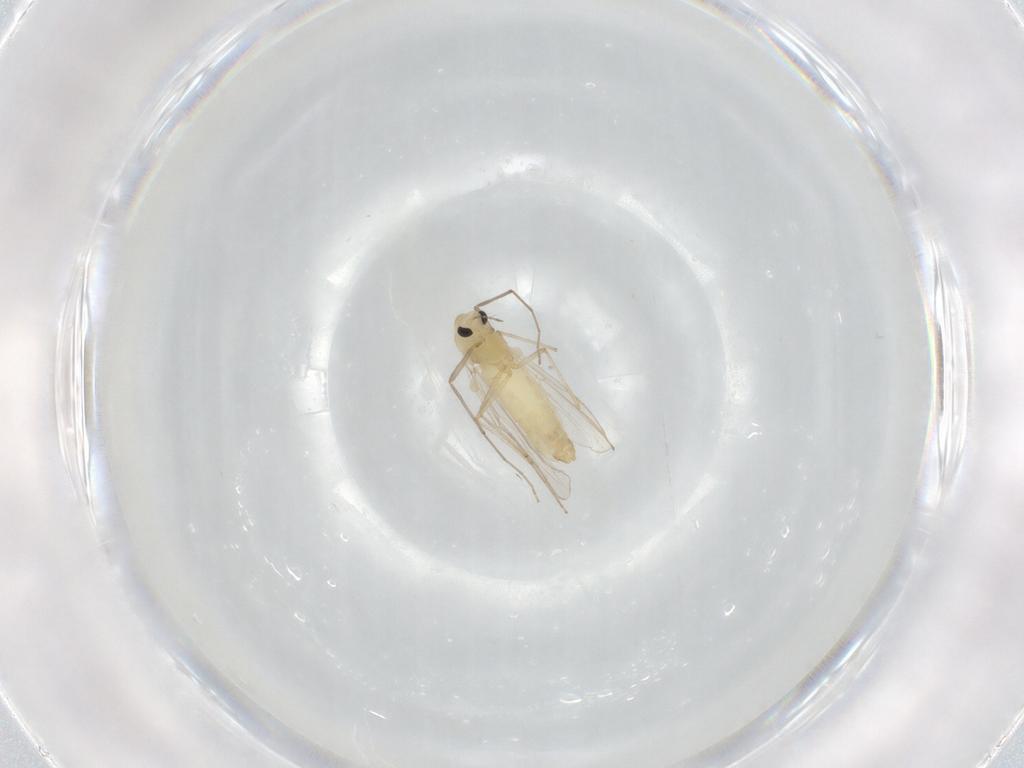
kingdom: Animalia
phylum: Arthropoda
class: Insecta
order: Diptera
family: Chironomidae
